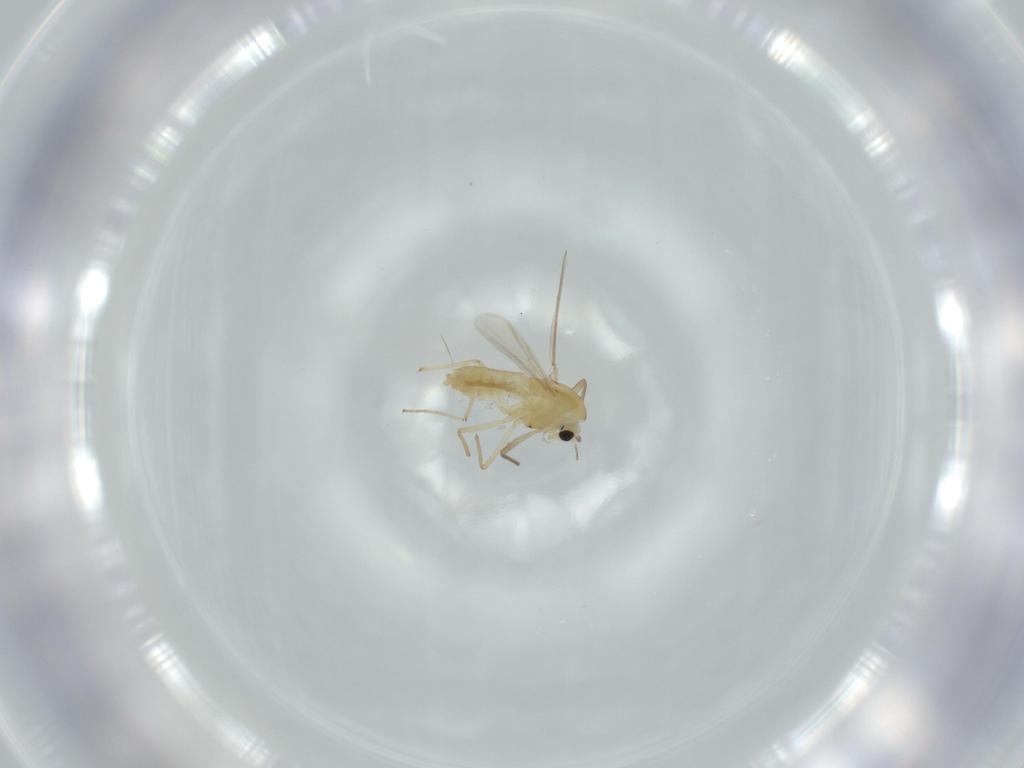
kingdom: Animalia
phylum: Arthropoda
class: Insecta
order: Diptera
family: Chironomidae
